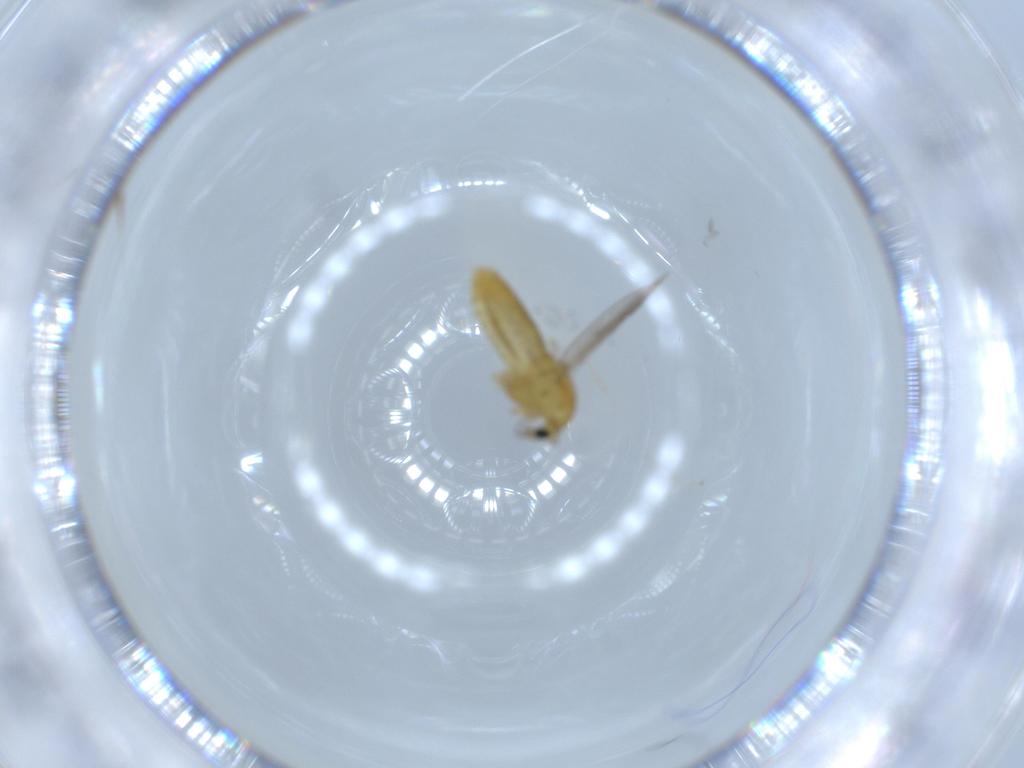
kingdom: Animalia
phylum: Arthropoda
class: Insecta
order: Diptera
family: Chironomidae
